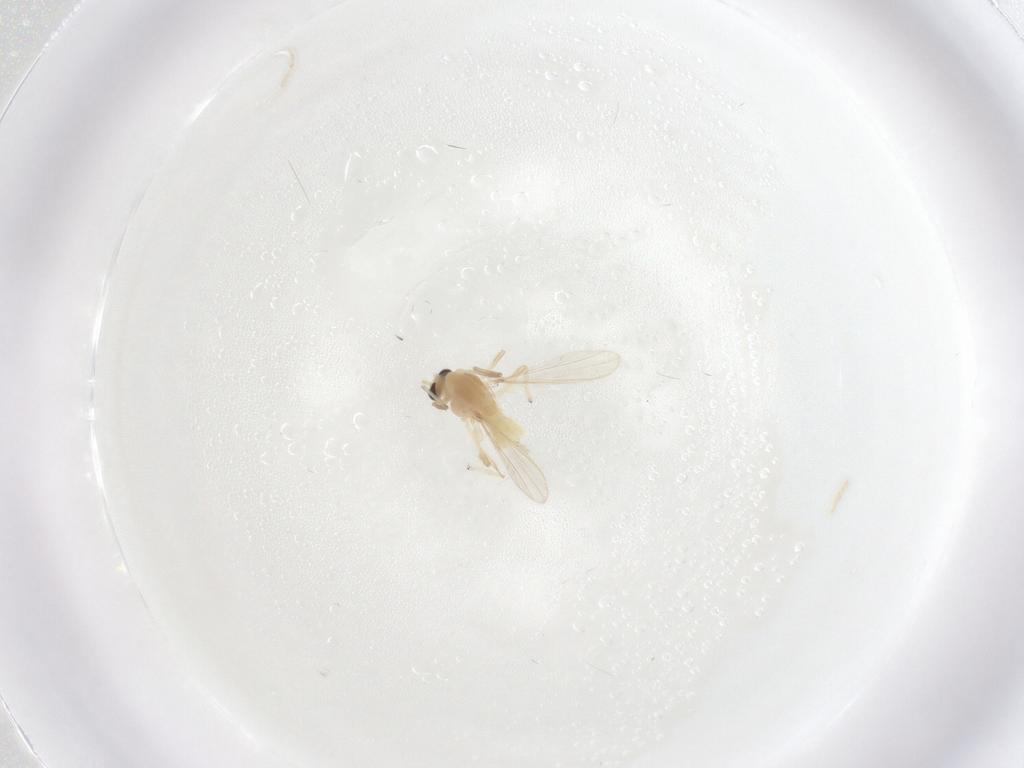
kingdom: Animalia
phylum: Arthropoda
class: Insecta
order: Diptera
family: Chironomidae
